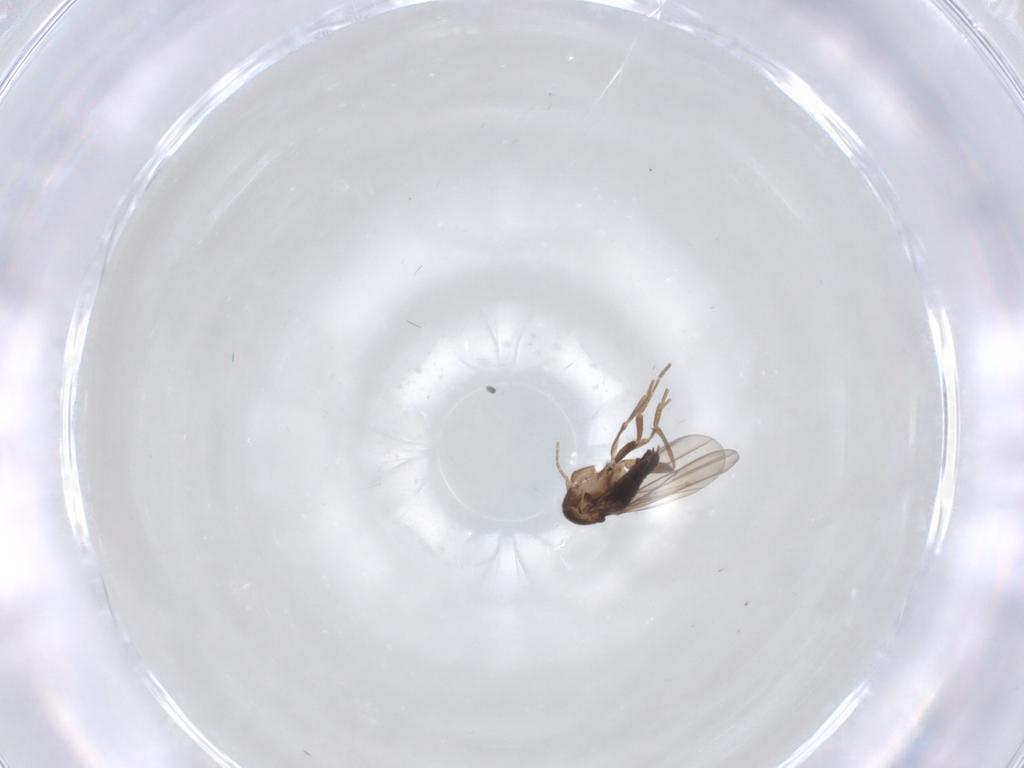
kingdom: Animalia
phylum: Arthropoda
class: Insecta
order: Diptera
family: Phoridae
